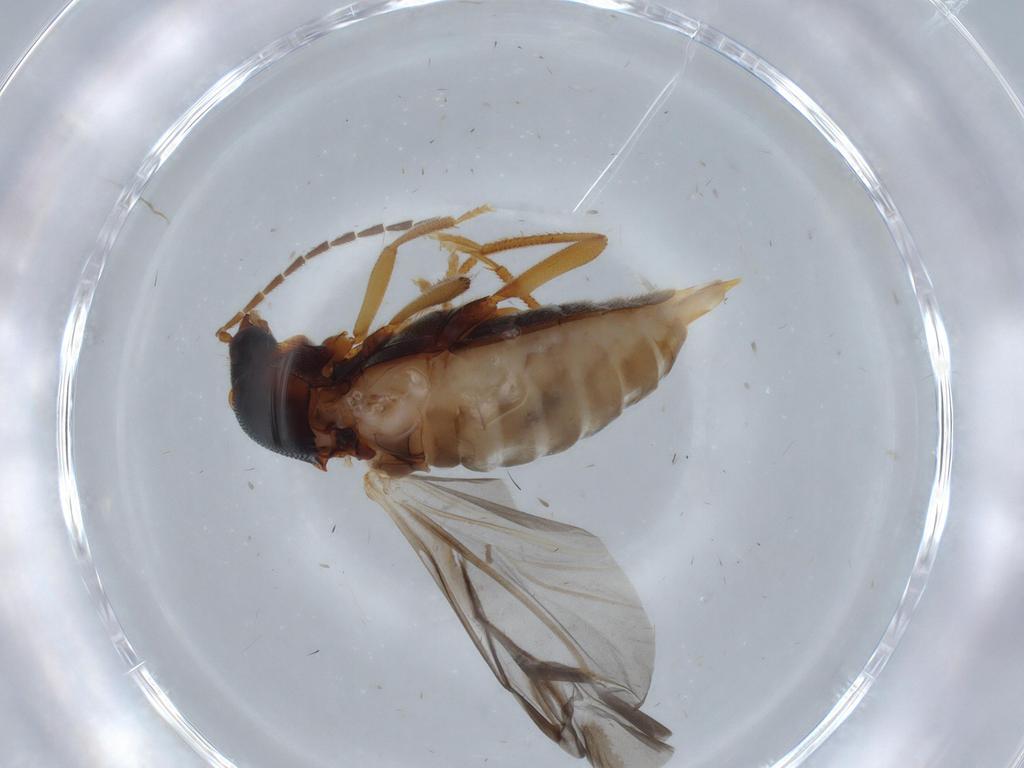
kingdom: Animalia
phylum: Arthropoda
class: Insecta
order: Coleoptera
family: Ptilodactylidae
